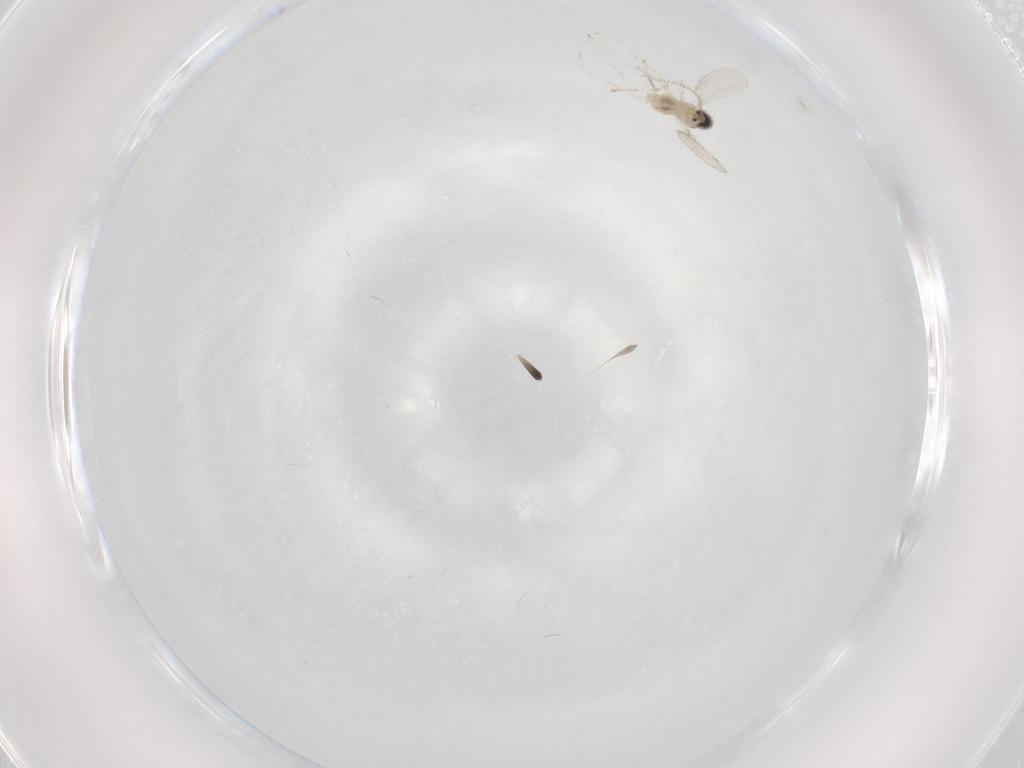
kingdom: Animalia
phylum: Arthropoda
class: Insecta
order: Diptera
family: Cecidomyiidae
